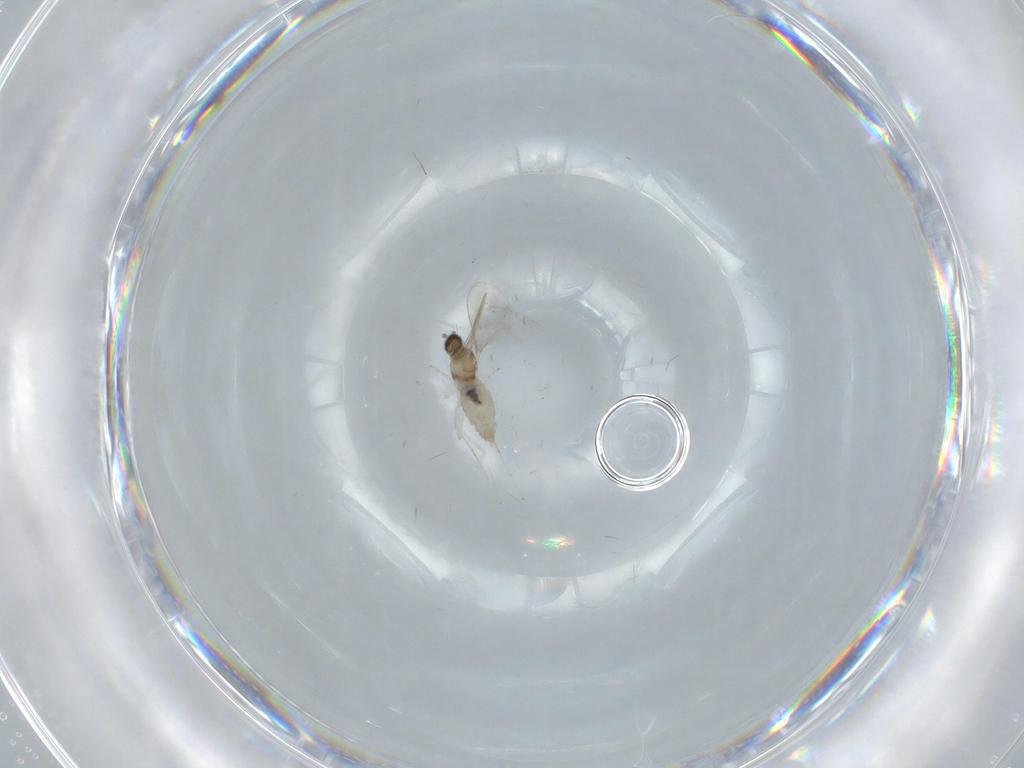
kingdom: Animalia
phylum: Arthropoda
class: Insecta
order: Diptera
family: Cecidomyiidae
